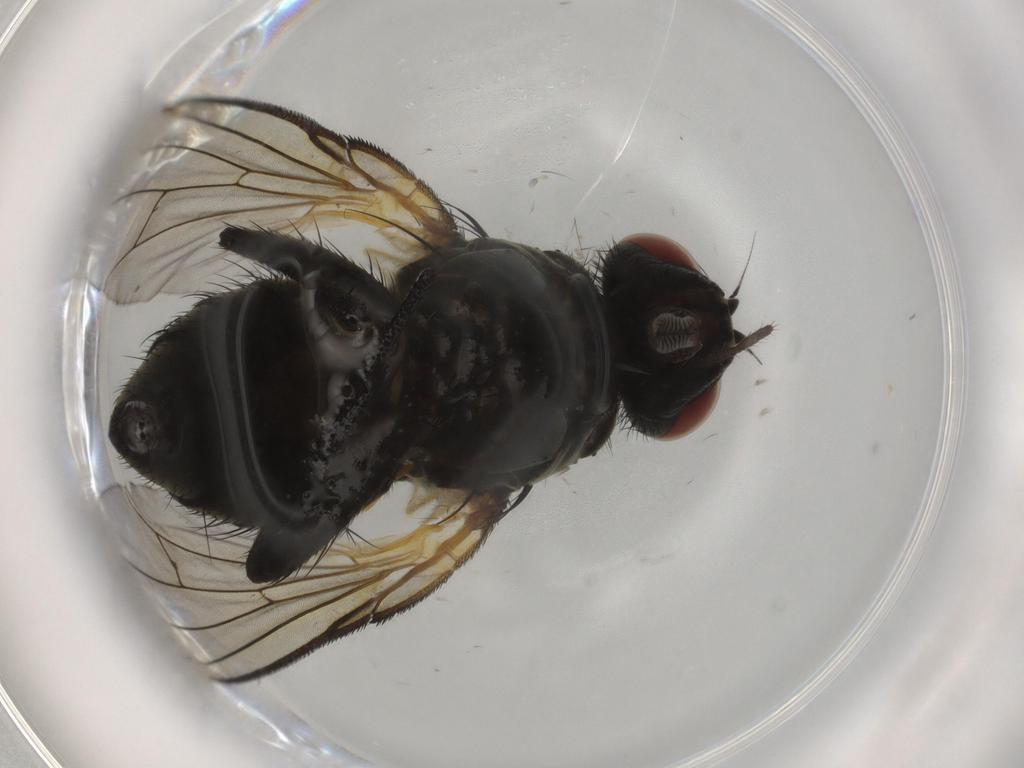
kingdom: Animalia
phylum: Arthropoda
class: Insecta
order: Diptera
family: Muscidae
